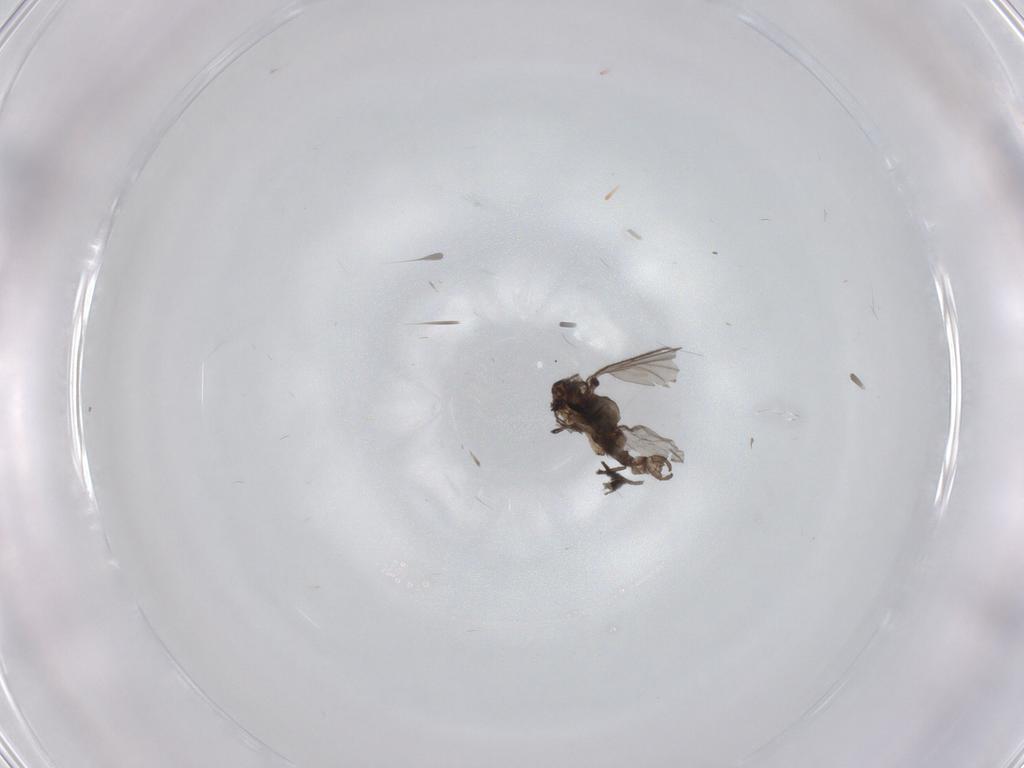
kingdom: Animalia
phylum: Arthropoda
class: Insecta
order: Diptera
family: Sciaridae
